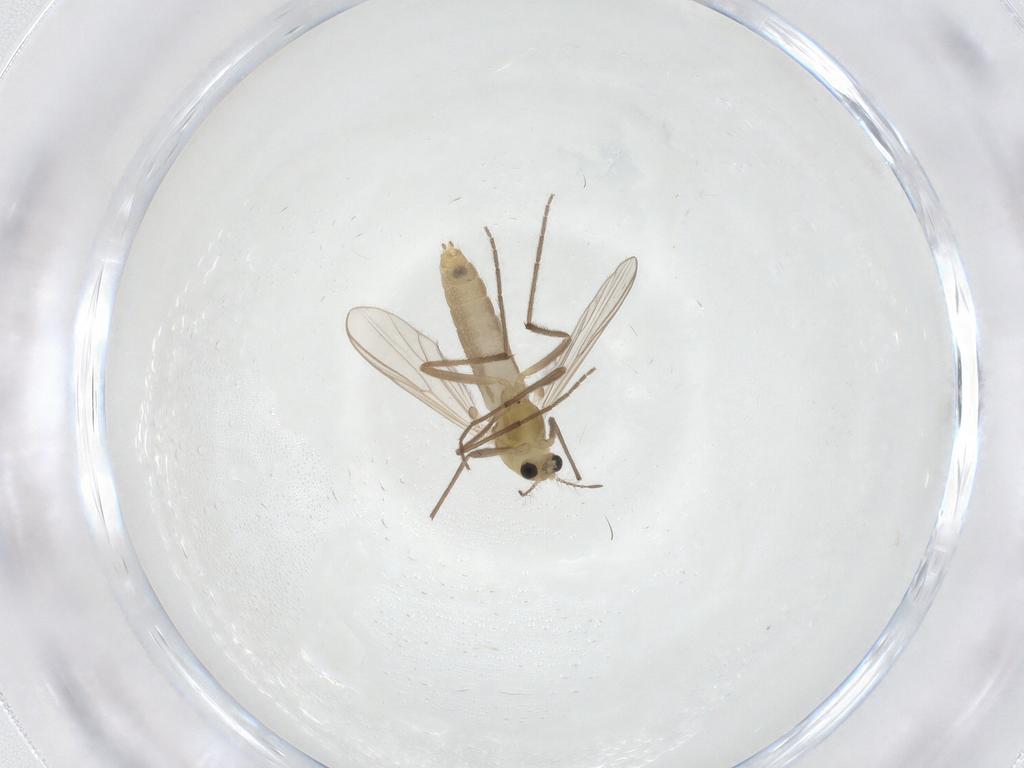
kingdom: Animalia
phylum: Arthropoda
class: Insecta
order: Diptera
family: Chironomidae
